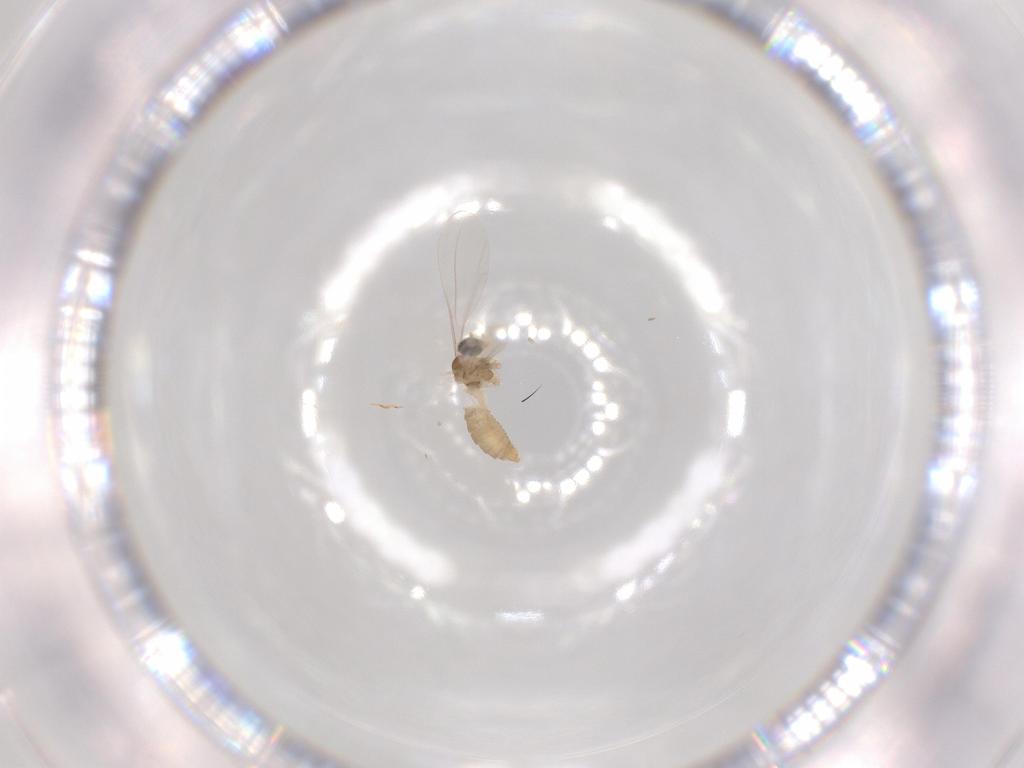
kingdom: Animalia
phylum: Arthropoda
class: Insecta
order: Diptera
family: Cecidomyiidae
